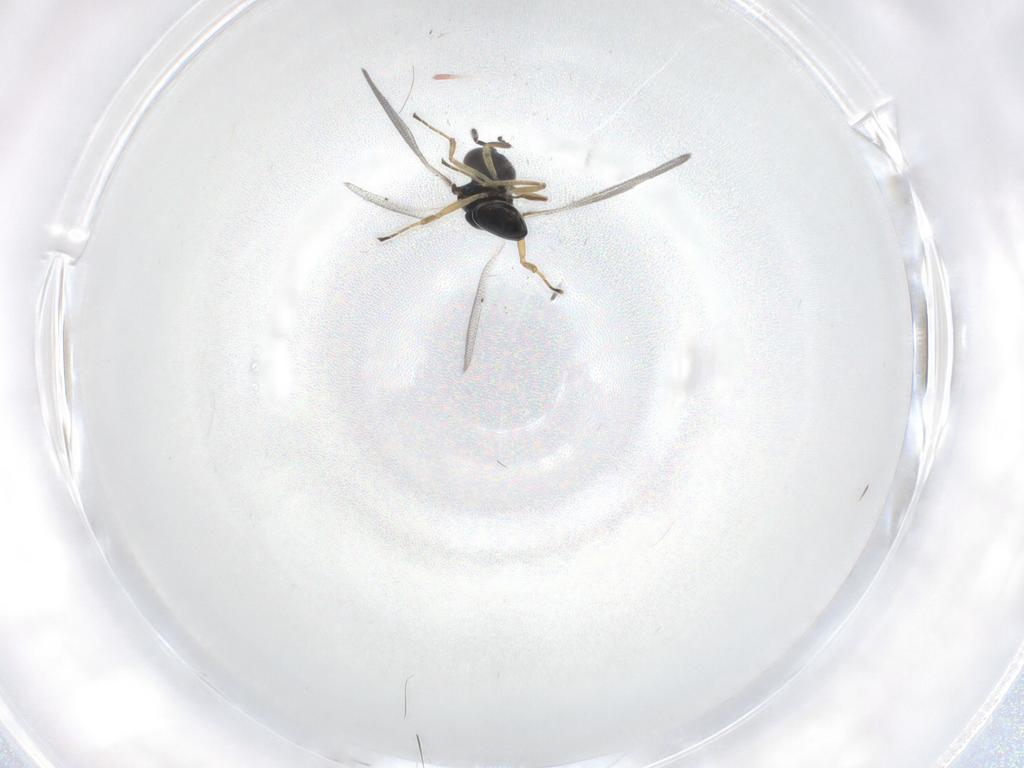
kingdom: Animalia
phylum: Arthropoda
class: Insecta
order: Hymenoptera
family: Eulophidae
